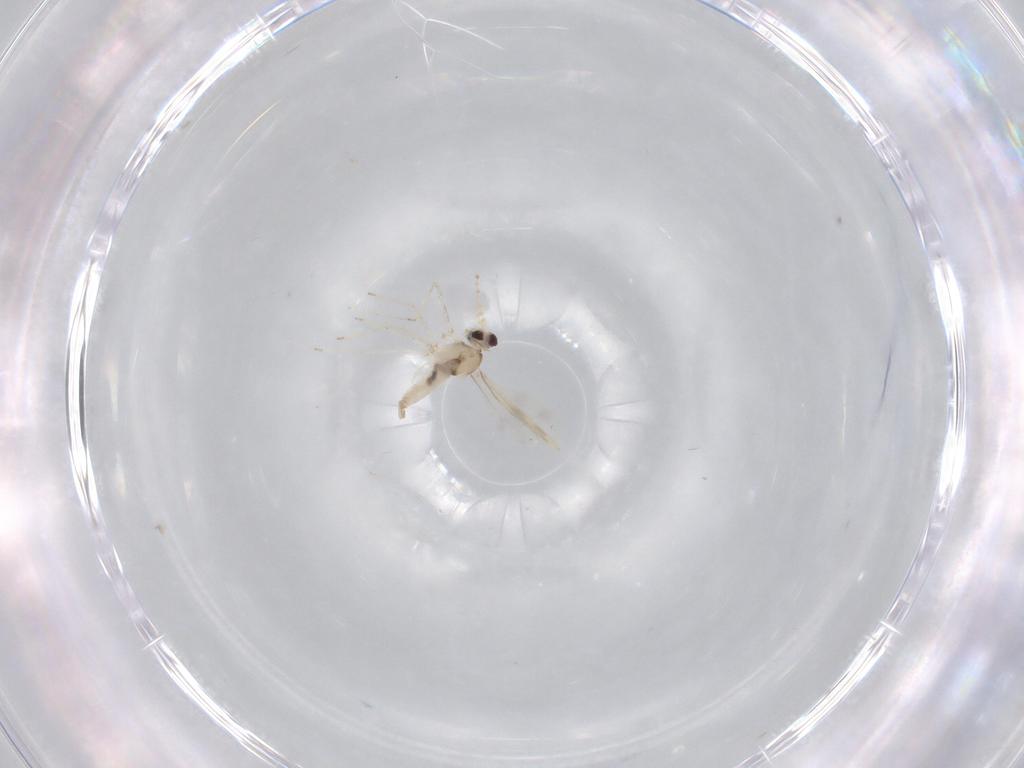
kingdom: Animalia
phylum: Arthropoda
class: Insecta
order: Diptera
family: Cecidomyiidae
